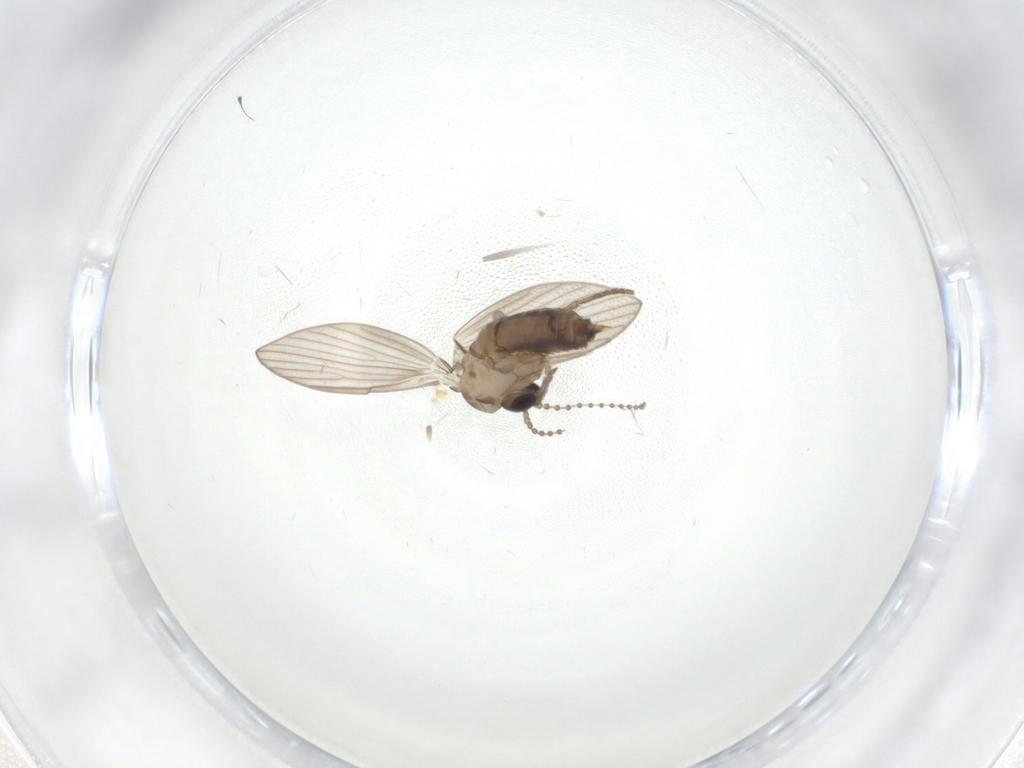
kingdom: Animalia
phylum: Arthropoda
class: Insecta
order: Diptera
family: Psychodidae
